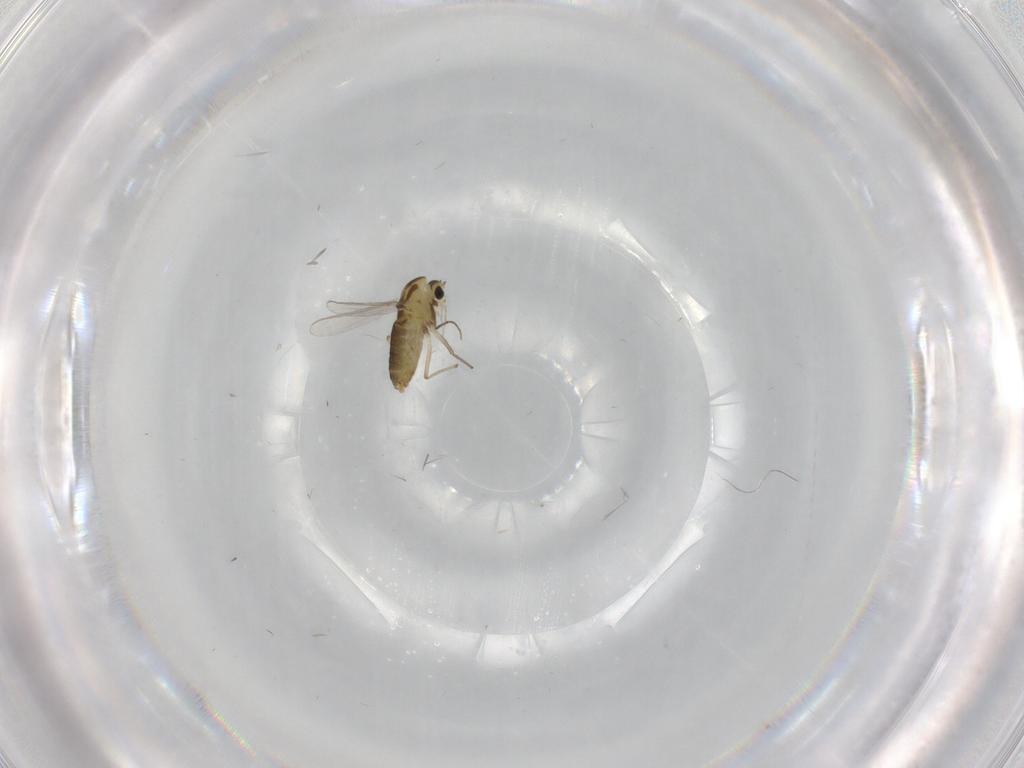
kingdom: Animalia
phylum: Arthropoda
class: Insecta
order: Diptera
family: Chironomidae
